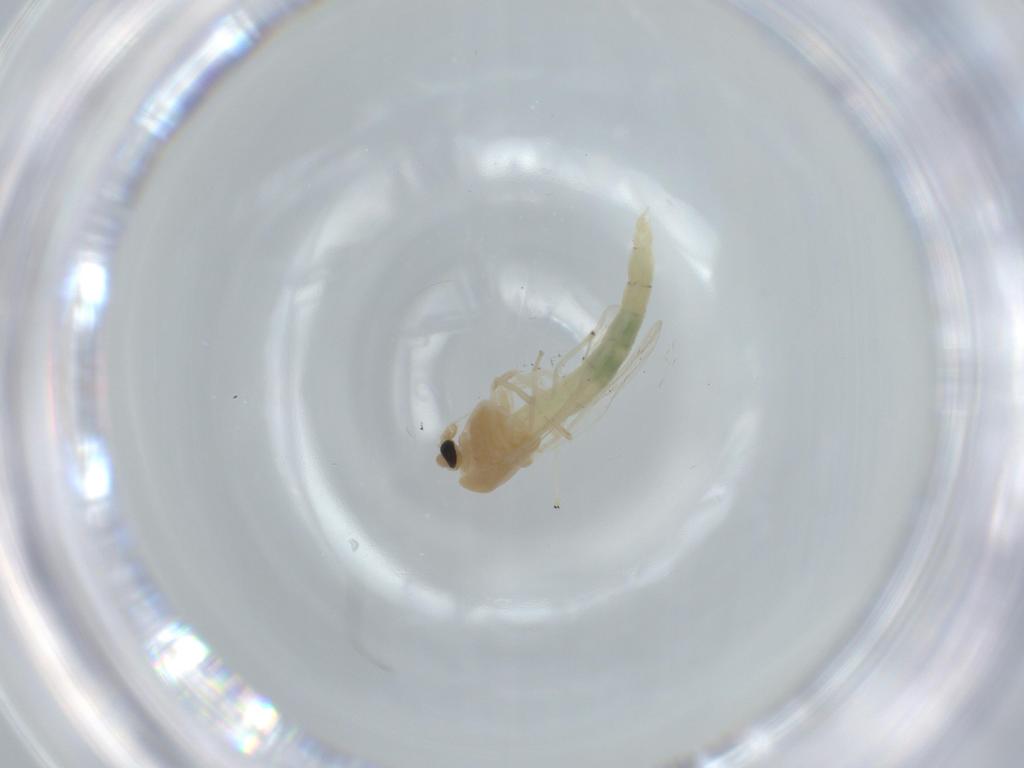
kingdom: Animalia
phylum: Arthropoda
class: Insecta
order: Diptera
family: Chironomidae
